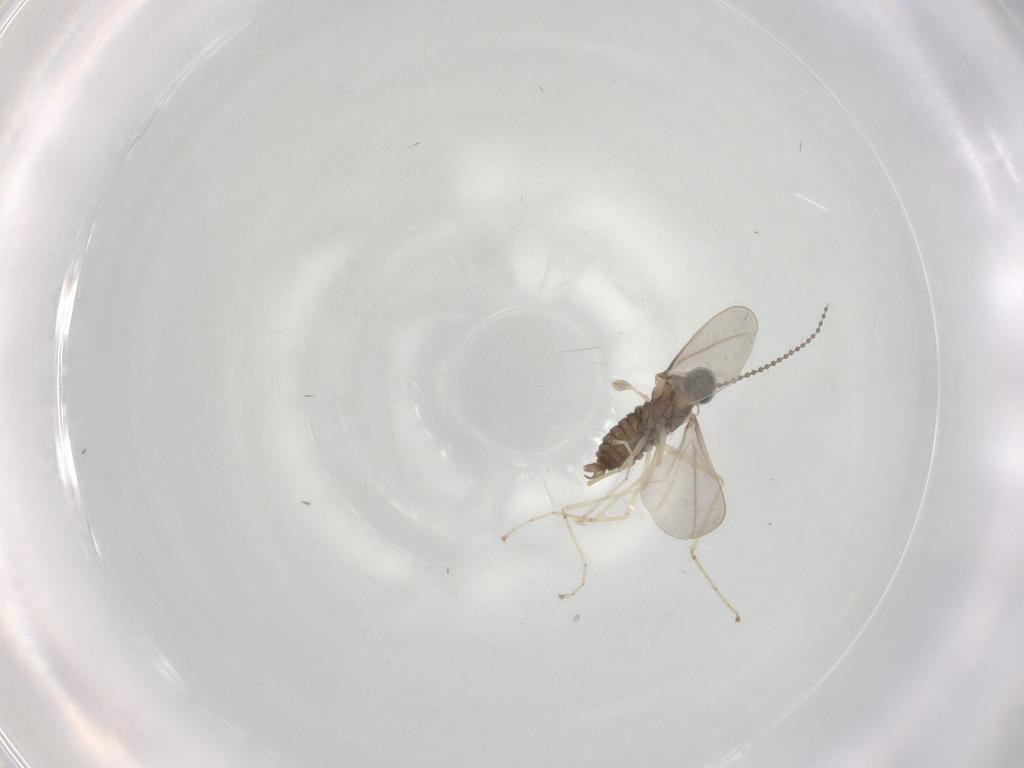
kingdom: Animalia
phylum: Arthropoda
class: Insecta
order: Diptera
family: Cecidomyiidae
